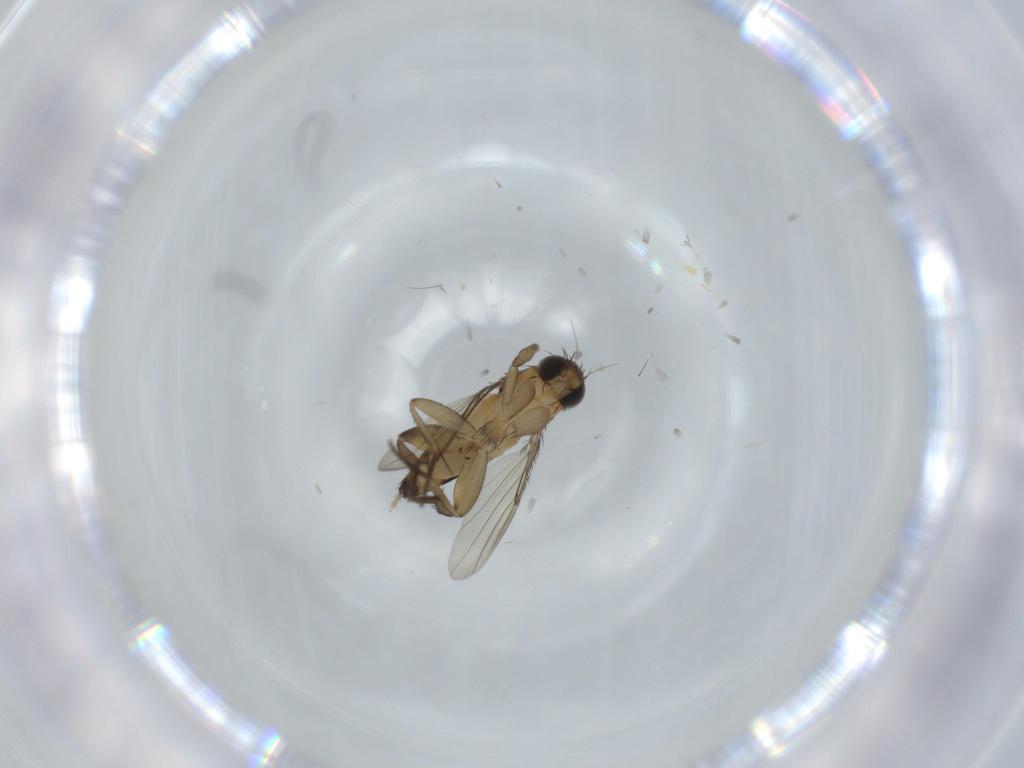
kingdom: Animalia
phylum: Arthropoda
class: Insecta
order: Diptera
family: Phoridae
